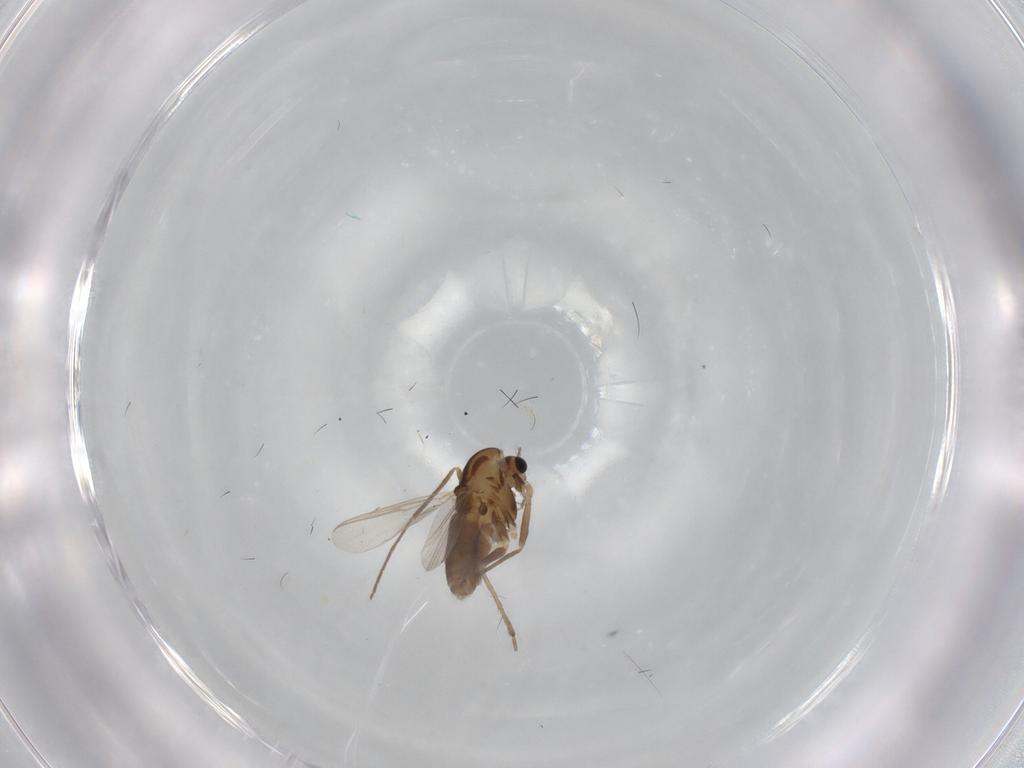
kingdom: Animalia
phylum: Arthropoda
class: Insecta
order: Diptera
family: Chironomidae
